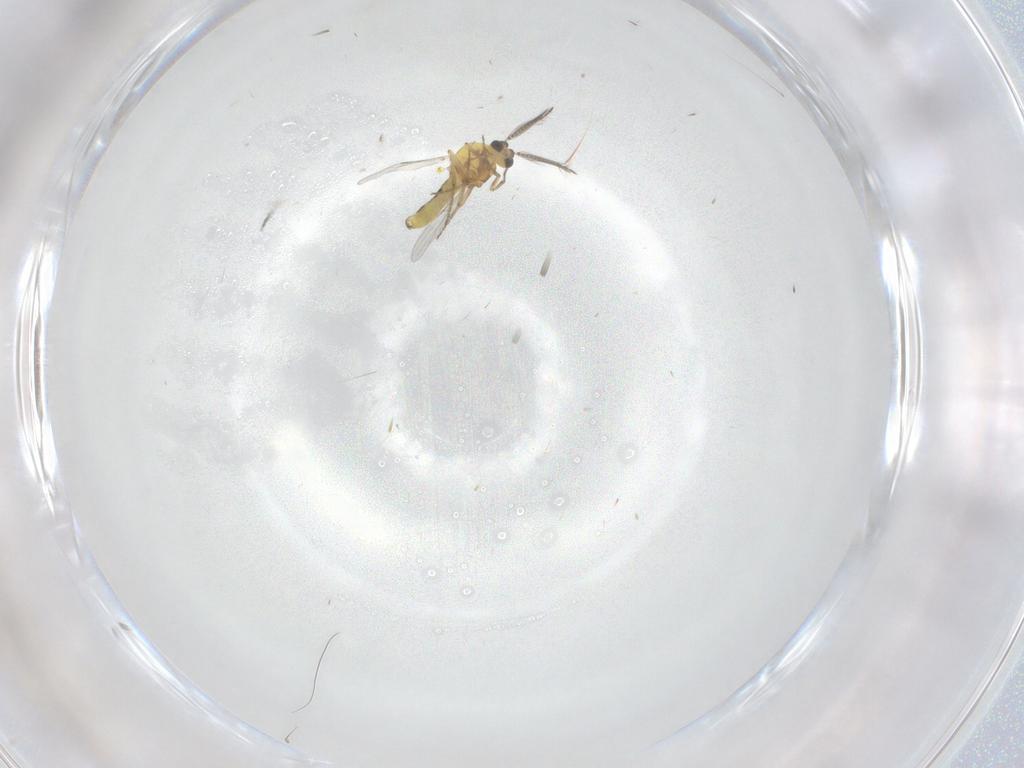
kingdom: Animalia
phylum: Arthropoda
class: Insecta
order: Diptera
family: Ceratopogonidae
